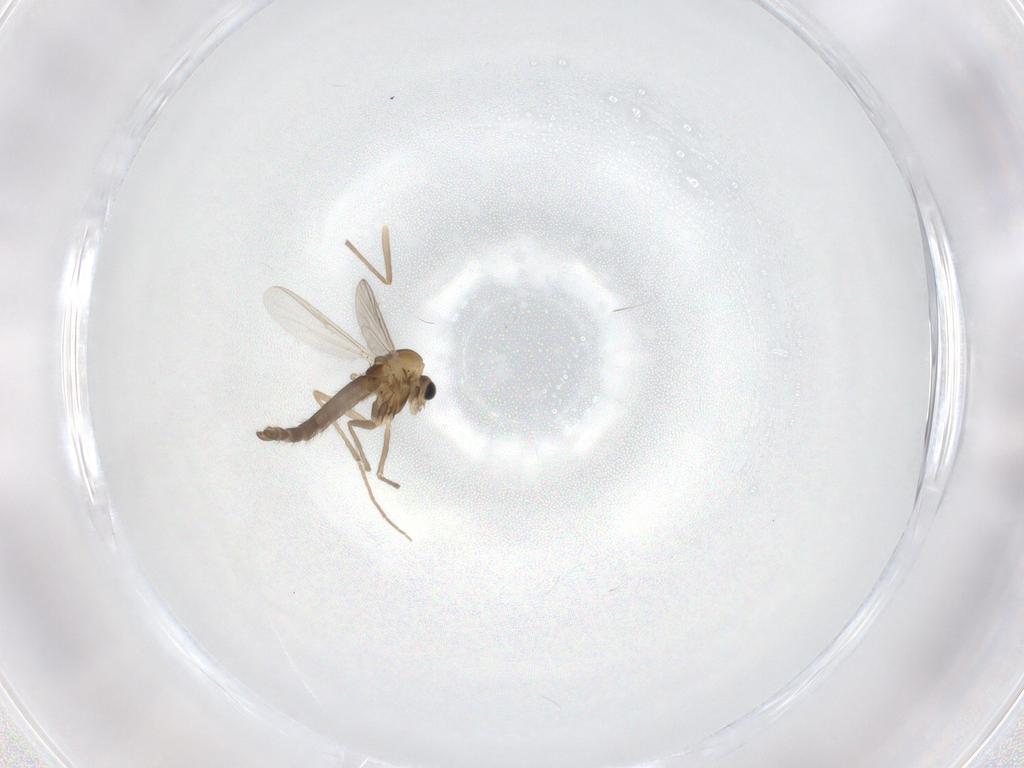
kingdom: Animalia
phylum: Arthropoda
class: Insecta
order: Diptera
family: Chironomidae
